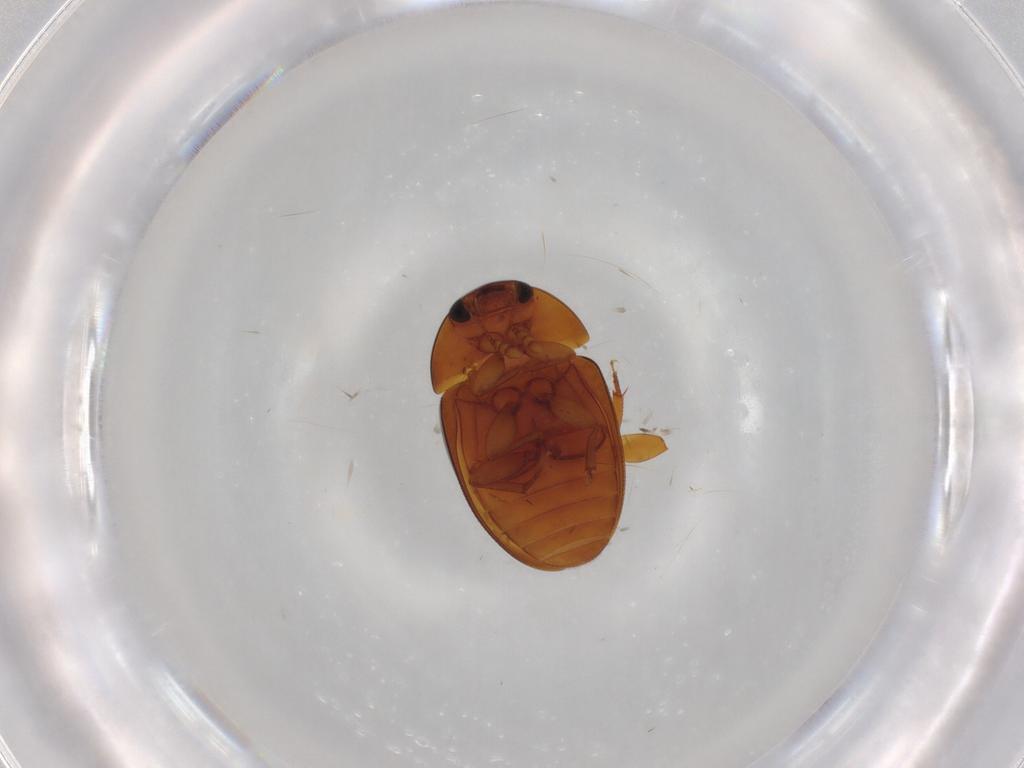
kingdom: Animalia
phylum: Arthropoda
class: Insecta
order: Coleoptera
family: Phalacridae
